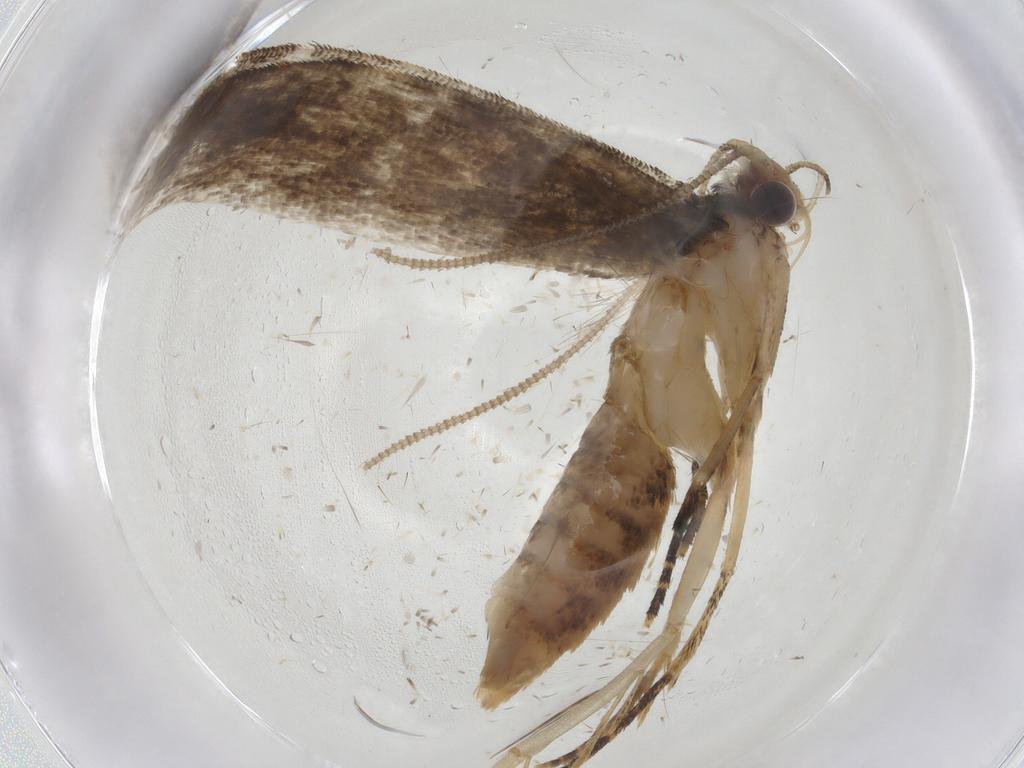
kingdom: Animalia
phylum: Arthropoda
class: Insecta
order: Lepidoptera
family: Tineidae
